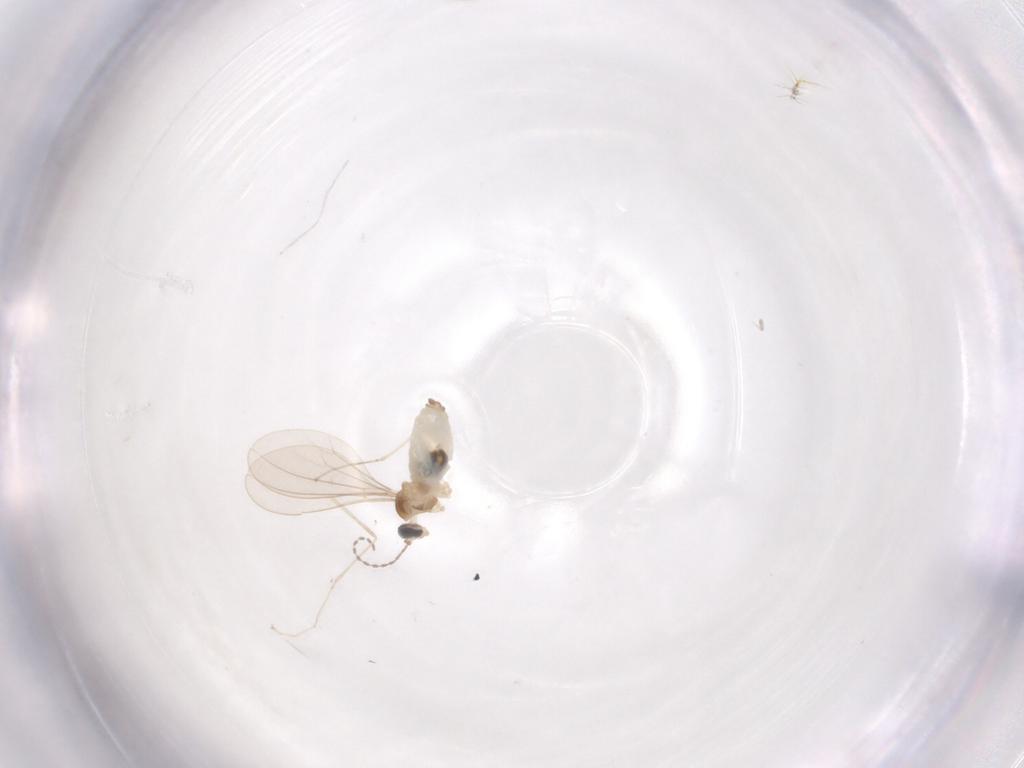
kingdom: Animalia
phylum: Arthropoda
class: Insecta
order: Diptera
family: Cecidomyiidae
